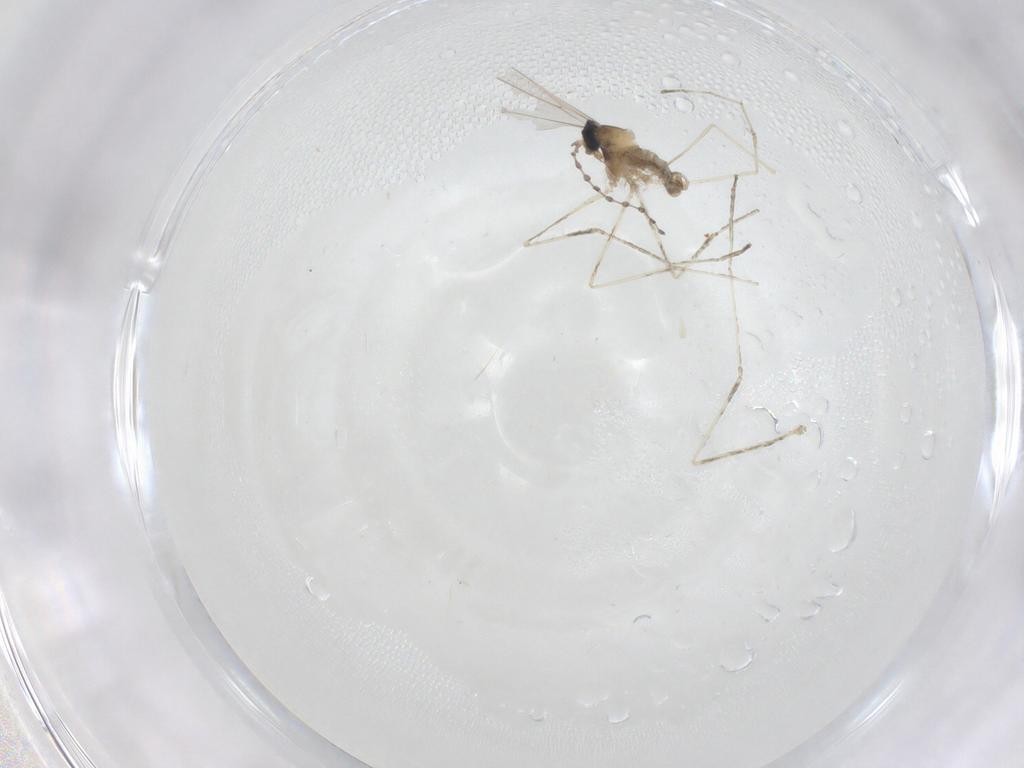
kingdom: Animalia
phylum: Arthropoda
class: Insecta
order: Diptera
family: Cecidomyiidae
